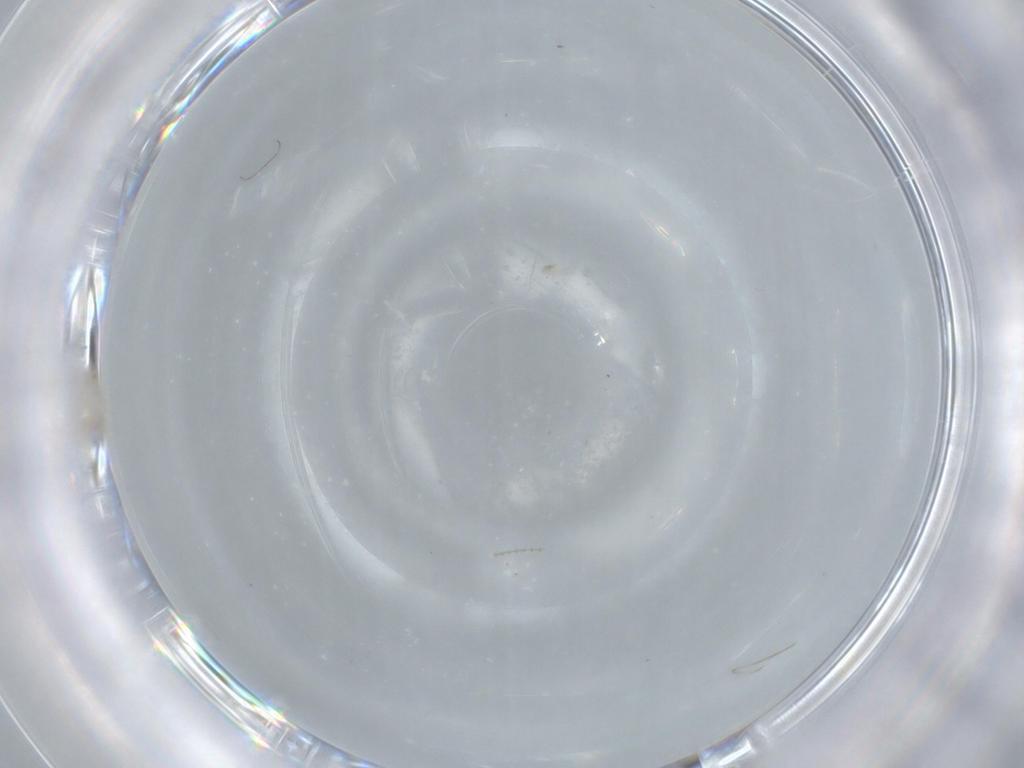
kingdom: Animalia
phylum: Arthropoda
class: Insecta
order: Diptera
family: Cecidomyiidae
